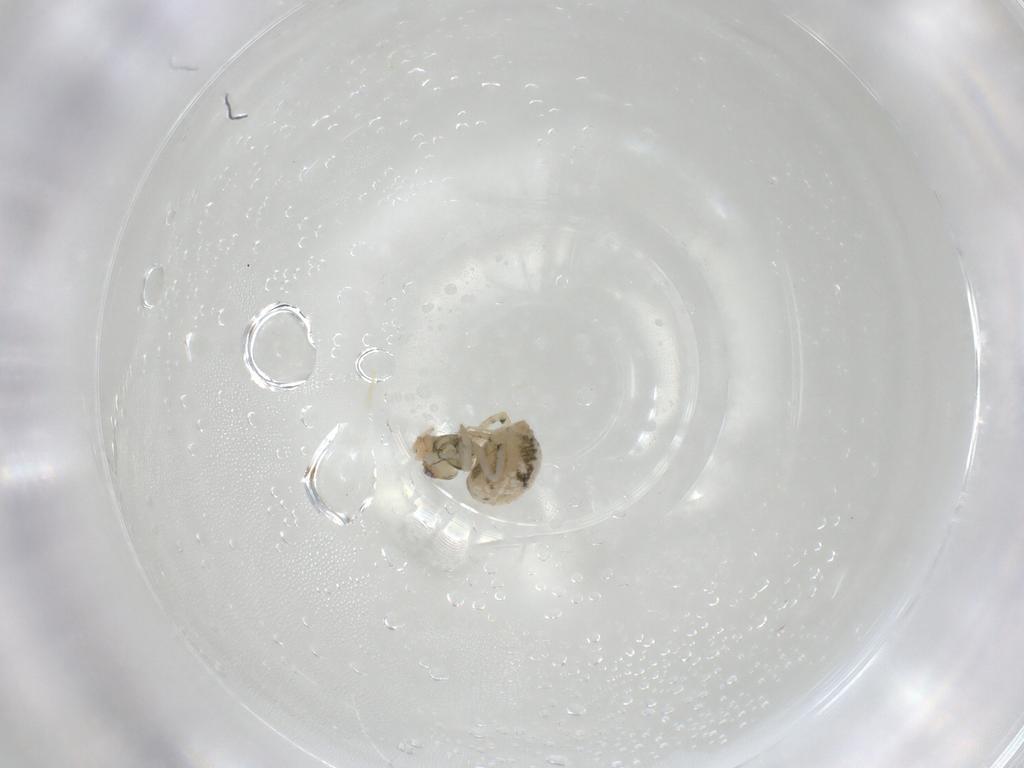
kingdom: Animalia
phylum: Arthropoda
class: Arachnida
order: Araneae
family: Theridiidae
